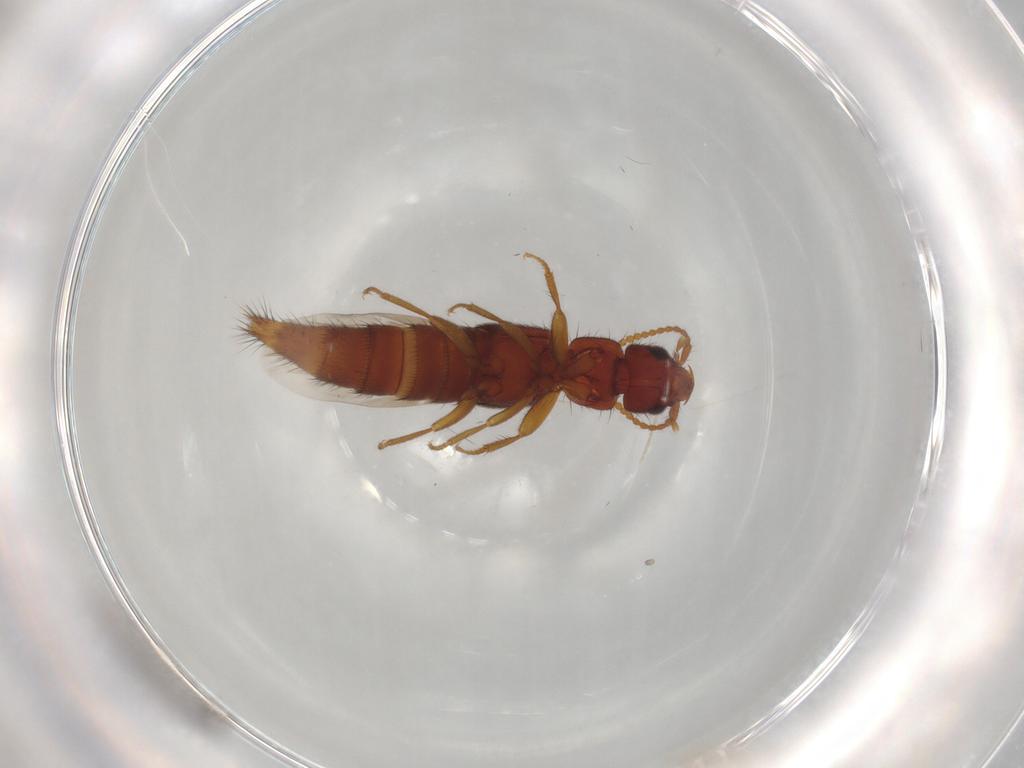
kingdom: Animalia
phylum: Arthropoda
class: Insecta
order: Coleoptera
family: Staphylinidae
